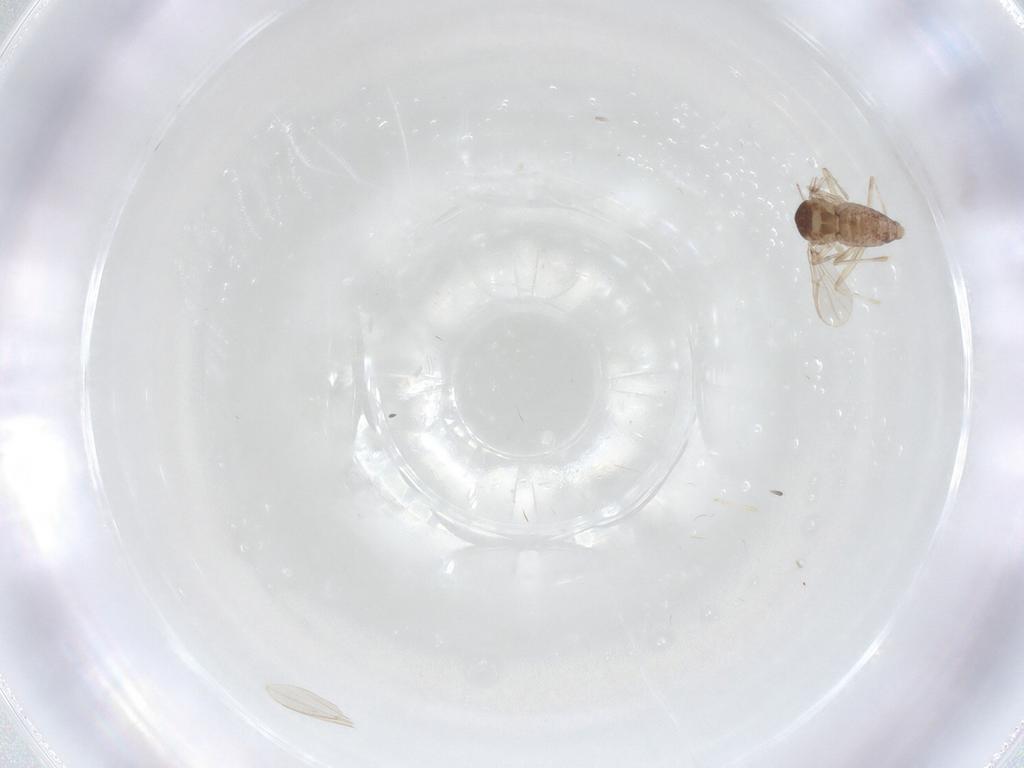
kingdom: Animalia
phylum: Arthropoda
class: Insecta
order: Diptera
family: Chironomidae
